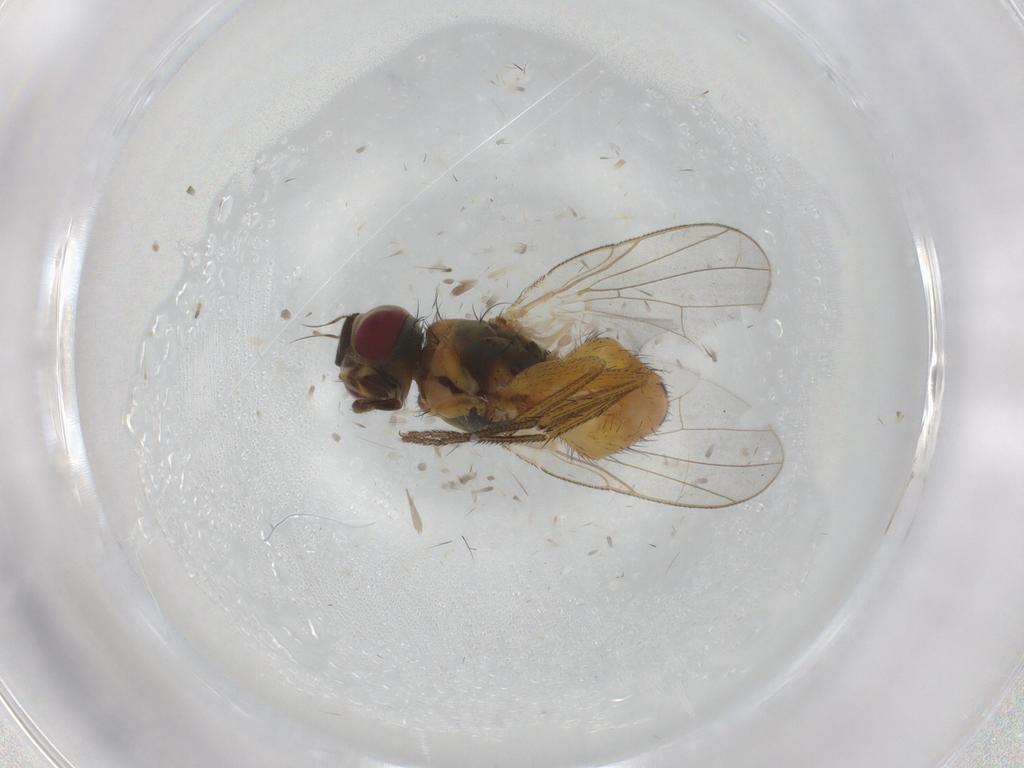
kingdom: Animalia
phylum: Arthropoda
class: Insecta
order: Diptera
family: Muscidae
